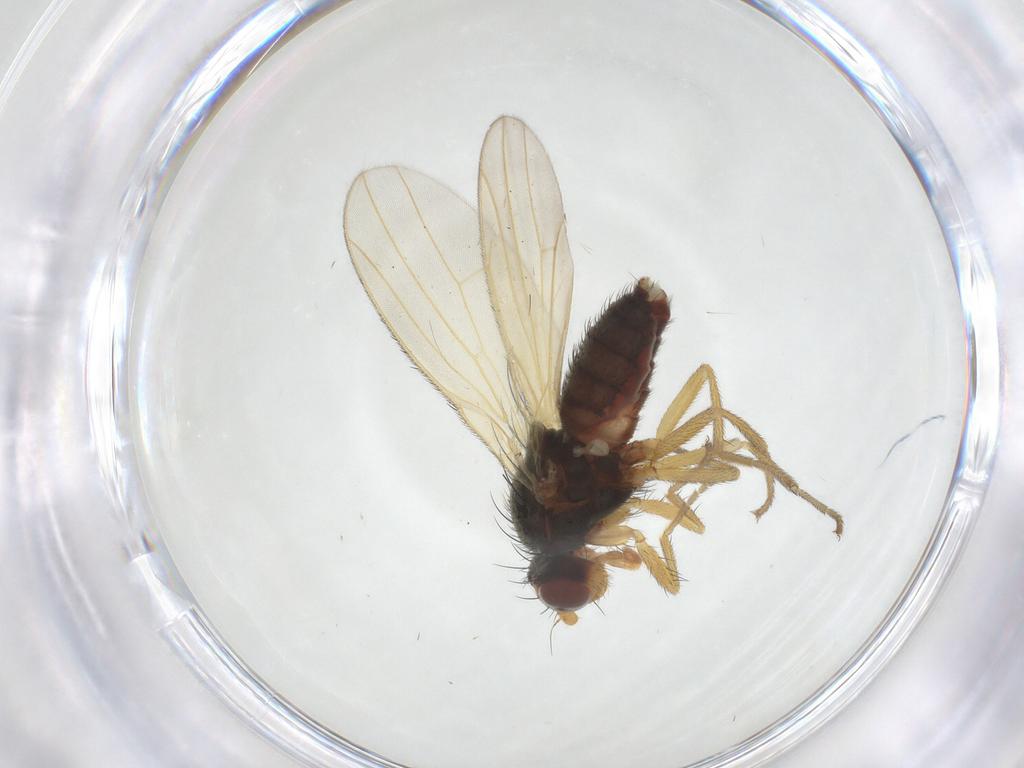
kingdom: Animalia
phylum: Arthropoda
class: Insecta
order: Diptera
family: Heleomyzidae
